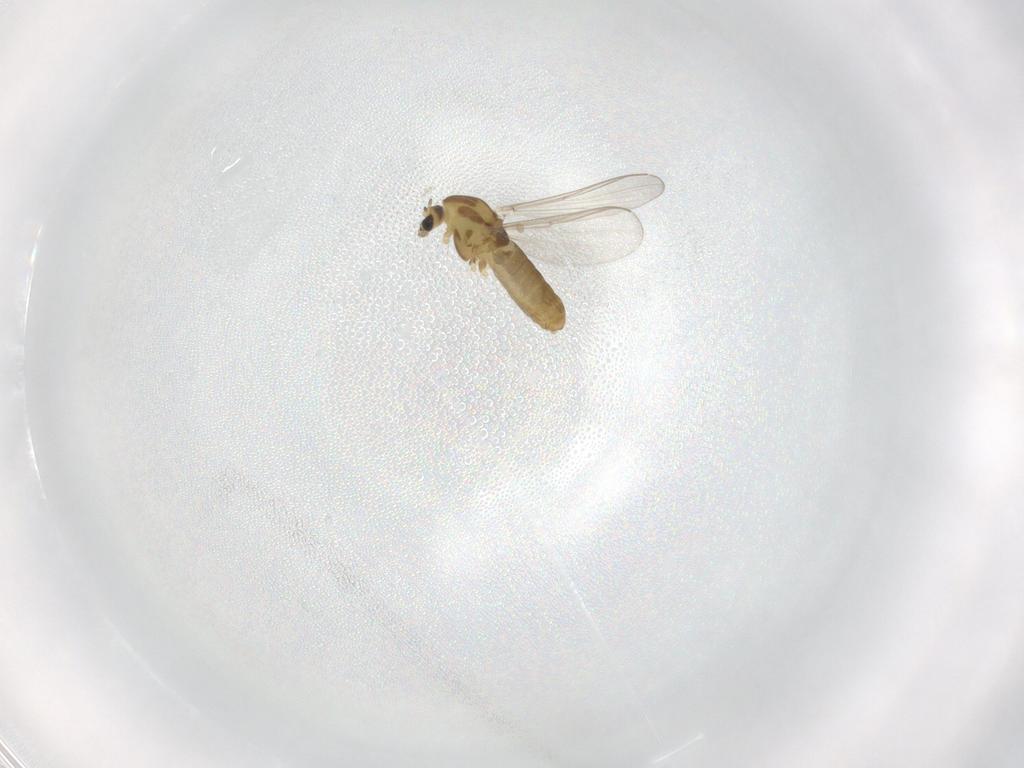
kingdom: Animalia
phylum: Arthropoda
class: Insecta
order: Diptera
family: Chironomidae
